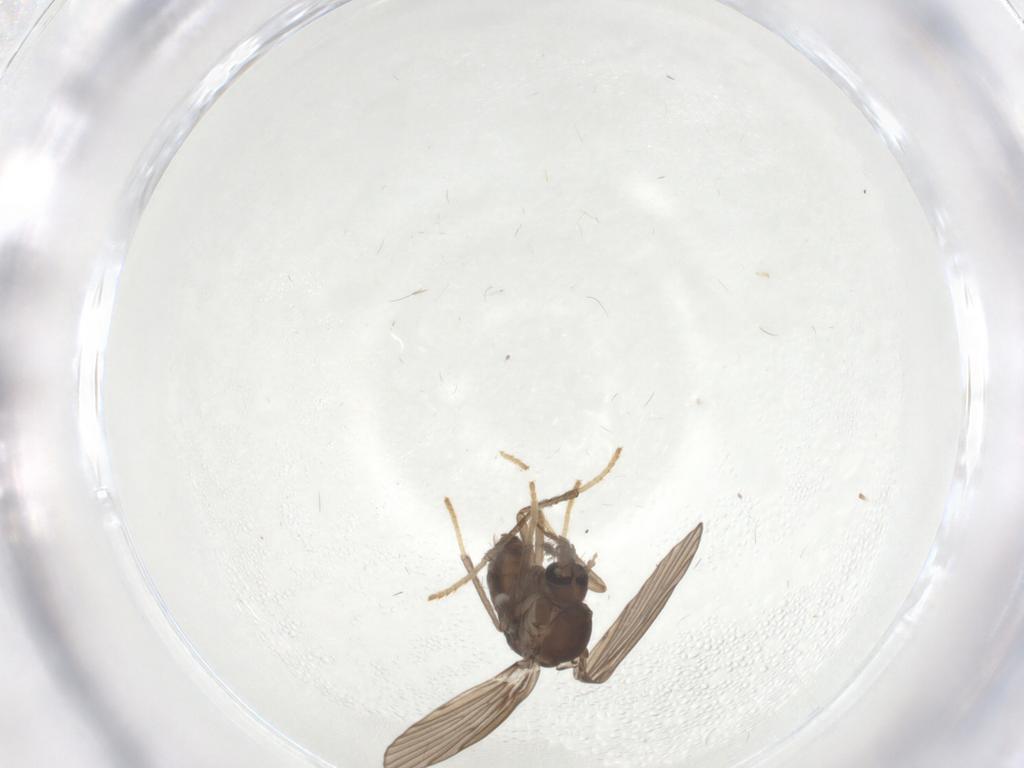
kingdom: Animalia
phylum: Arthropoda
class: Insecta
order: Diptera
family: Chironomidae
